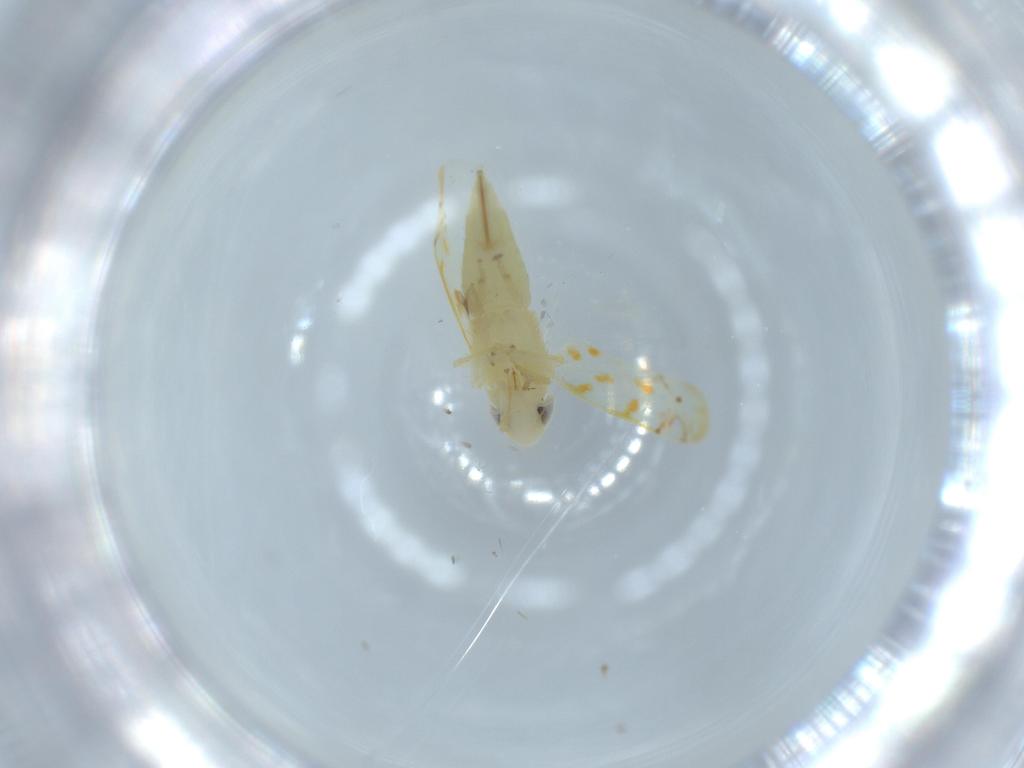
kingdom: Animalia
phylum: Arthropoda
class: Insecta
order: Hemiptera
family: Cicadellidae
